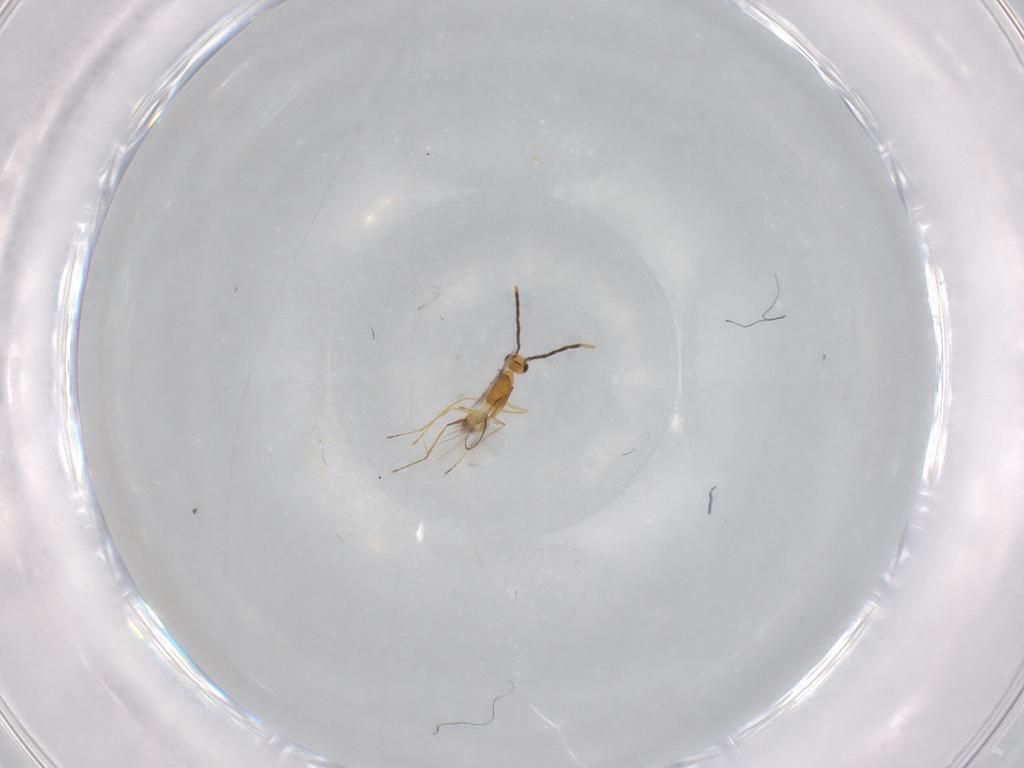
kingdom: Animalia
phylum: Arthropoda
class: Insecta
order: Hymenoptera
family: Mymaridae
